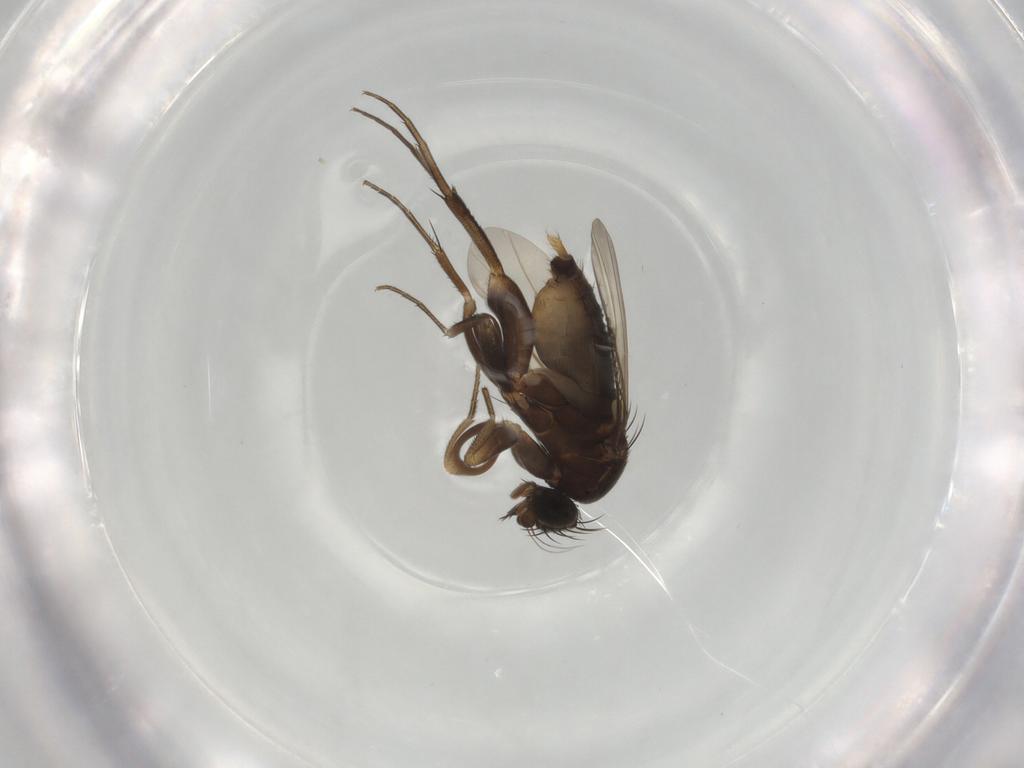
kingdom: Animalia
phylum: Arthropoda
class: Insecta
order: Diptera
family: Phoridae
